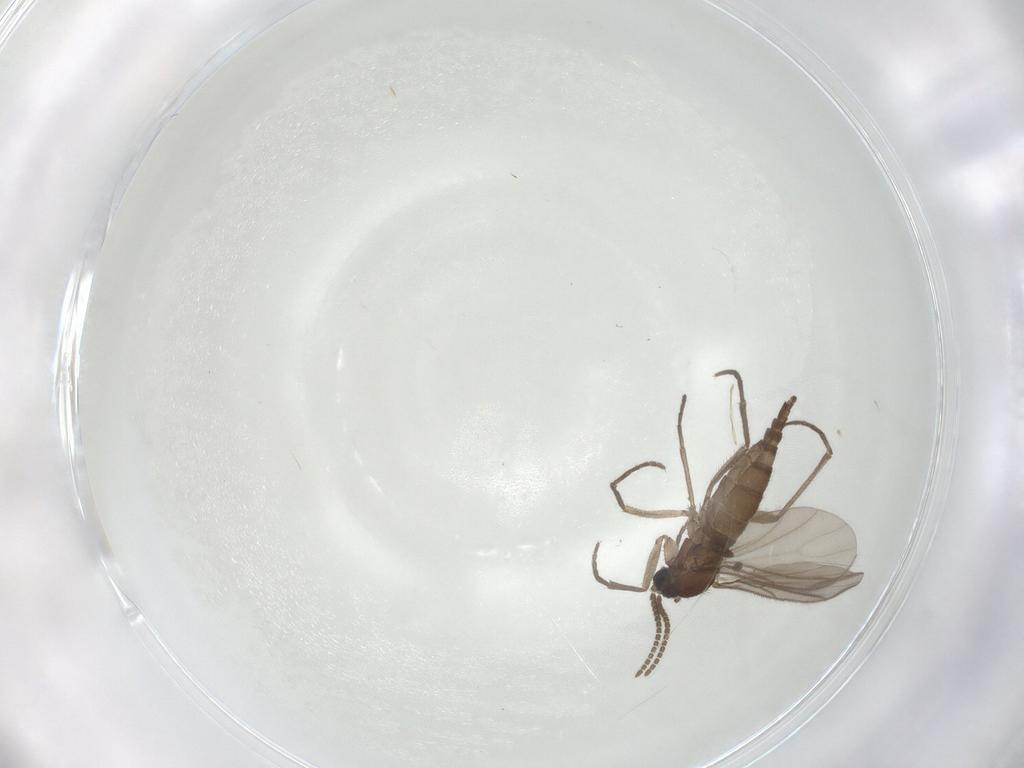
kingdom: Animalia
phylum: Arthropoda
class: Insecta
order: Diptera
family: Sciaridae
